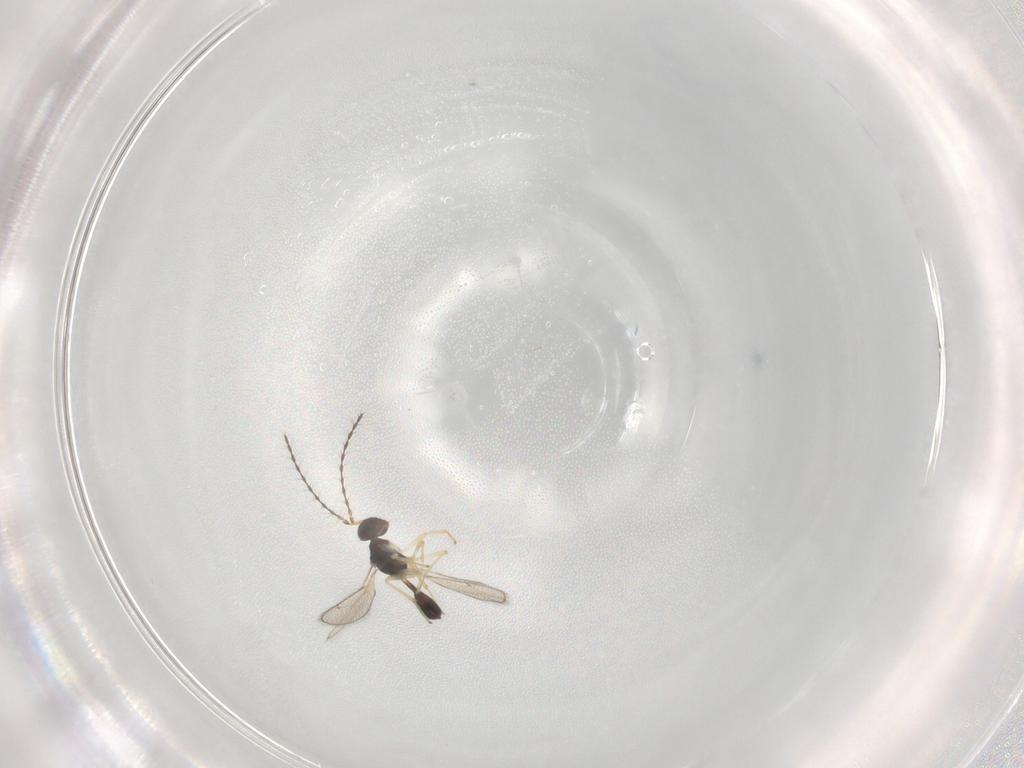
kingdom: Animalia
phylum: Arthropoda
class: Insecta
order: Hymenoptera
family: Diparidae
